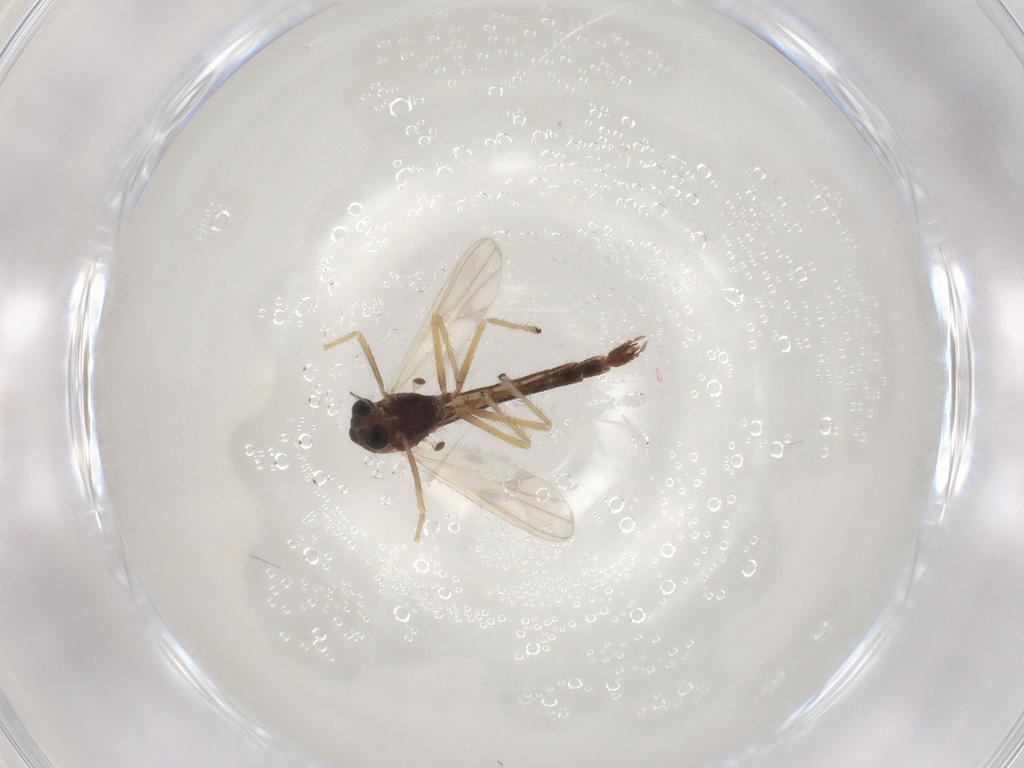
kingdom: Animalia
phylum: Arthropoda
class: Insecta
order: Diptera
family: Chironomidae
